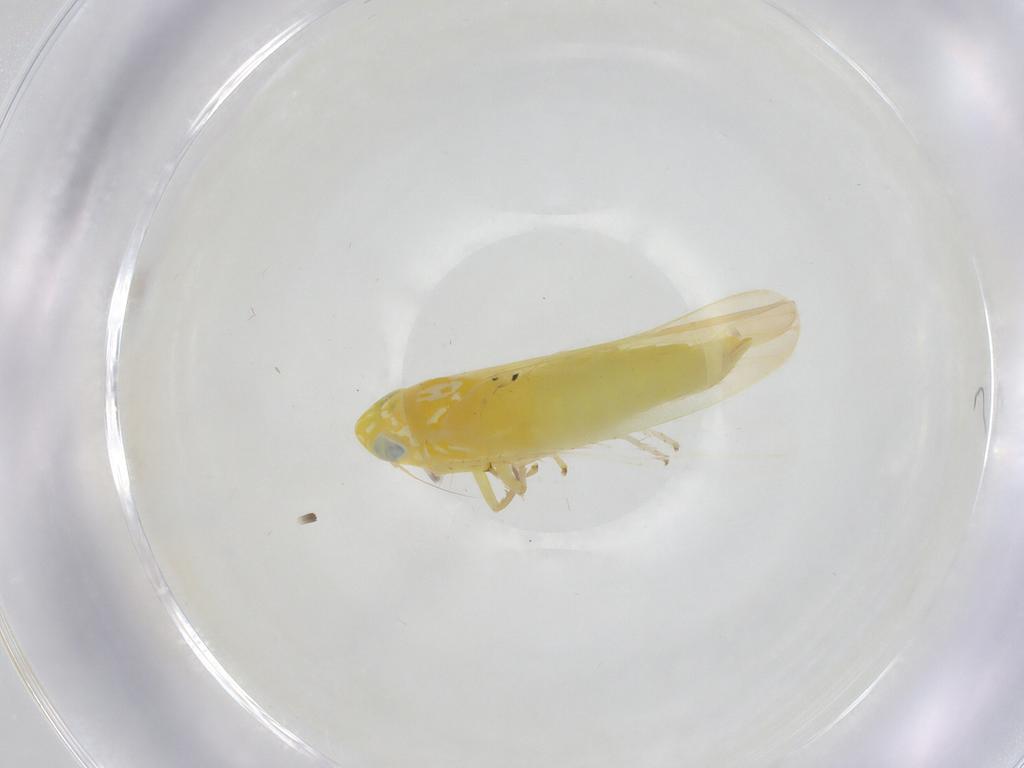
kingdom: Animalia
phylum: Arthropoda
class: Insecta
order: Hemiptera
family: Cicadellidae
